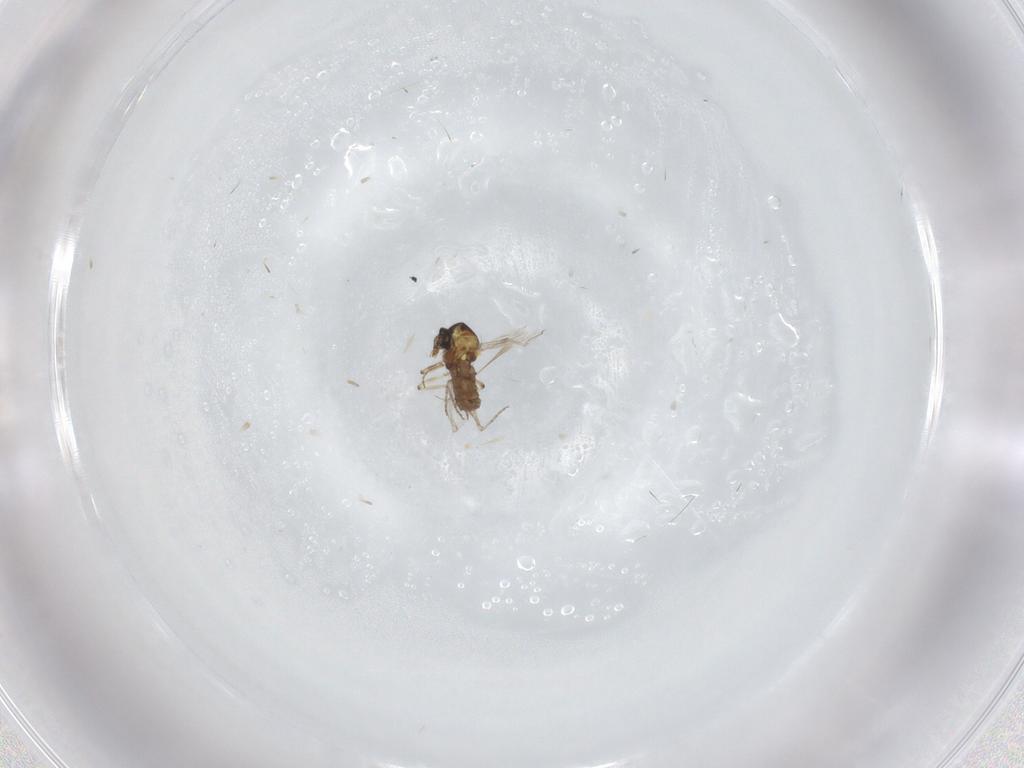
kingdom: Animalia
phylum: Arthropoda
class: Insecta
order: Diptera
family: Ceratopogonidae
